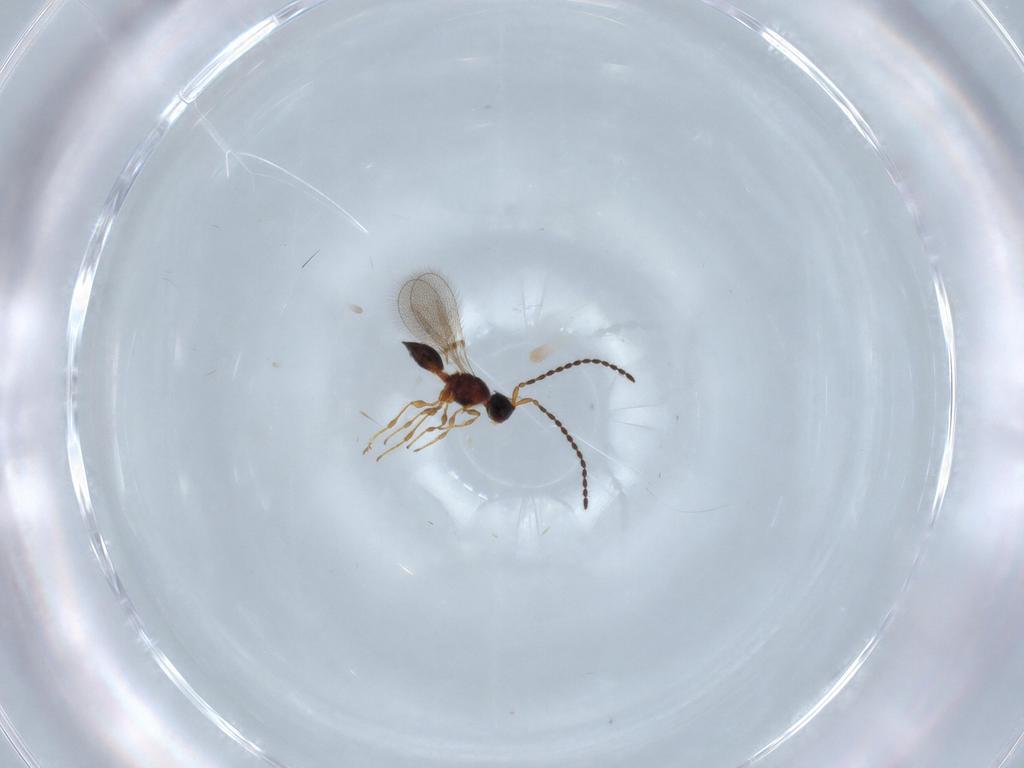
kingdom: Animalia
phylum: Arthropoda
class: Insecta
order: Hymenoptera
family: Diapriidae
